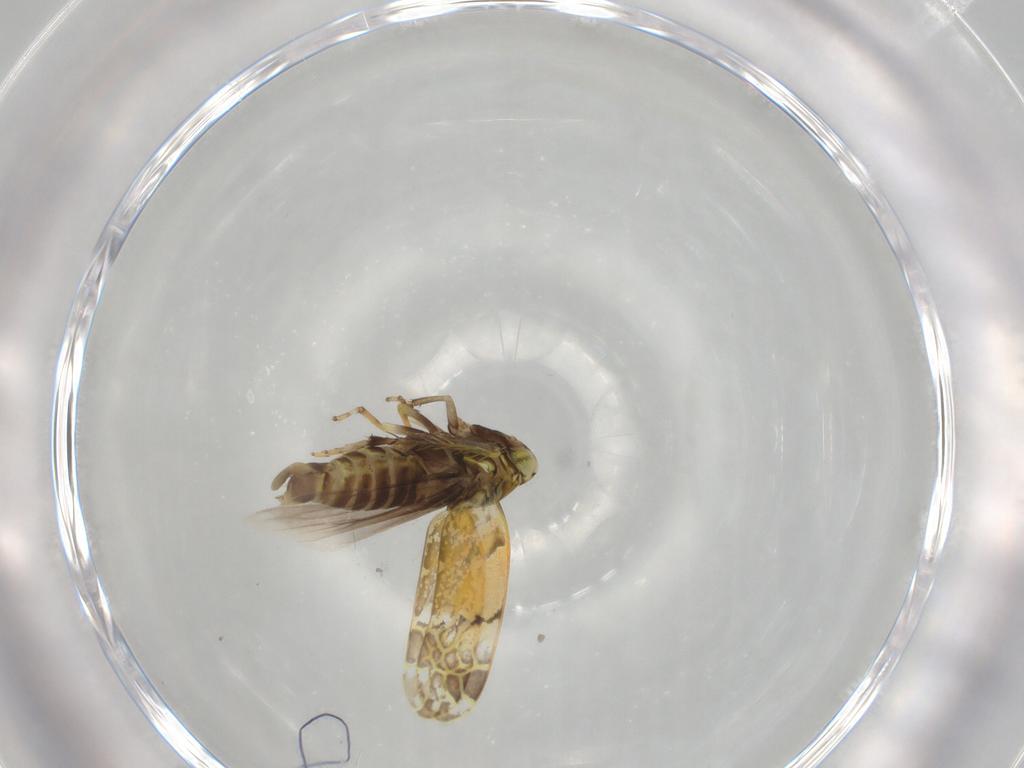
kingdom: Animalia
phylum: Arthropoda
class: Insecta
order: Hemiptera
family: Cicadellidae
